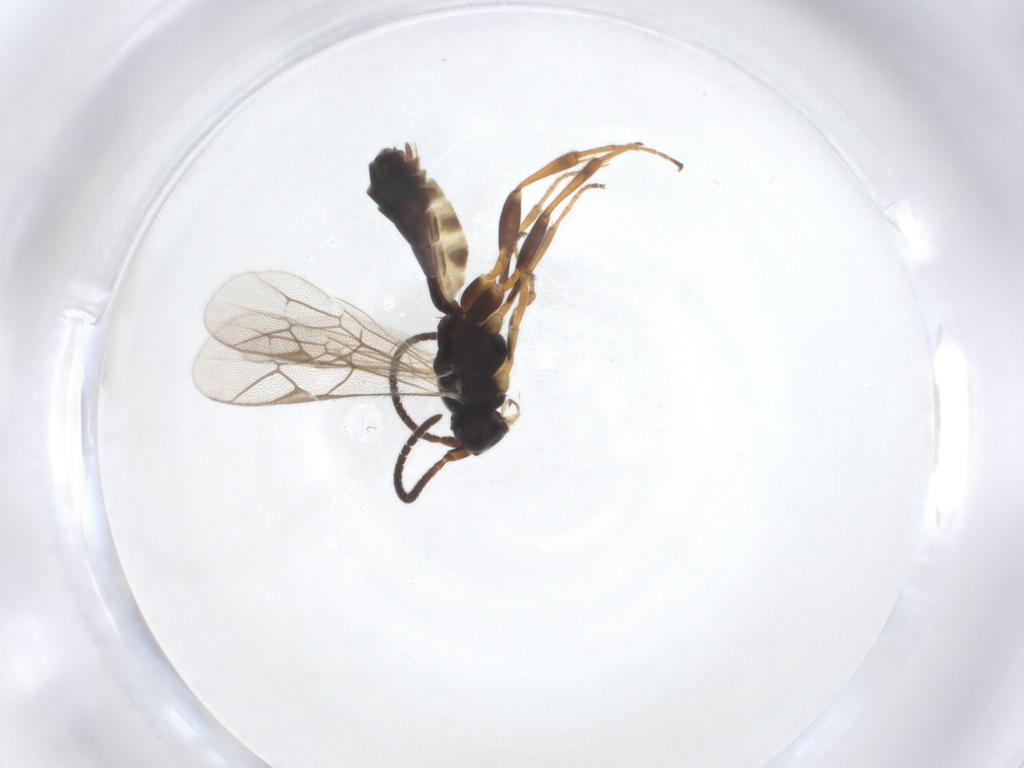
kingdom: Animalia
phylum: Arthropoda
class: Insecta
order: Hymenoptera
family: Ichneumonidae
